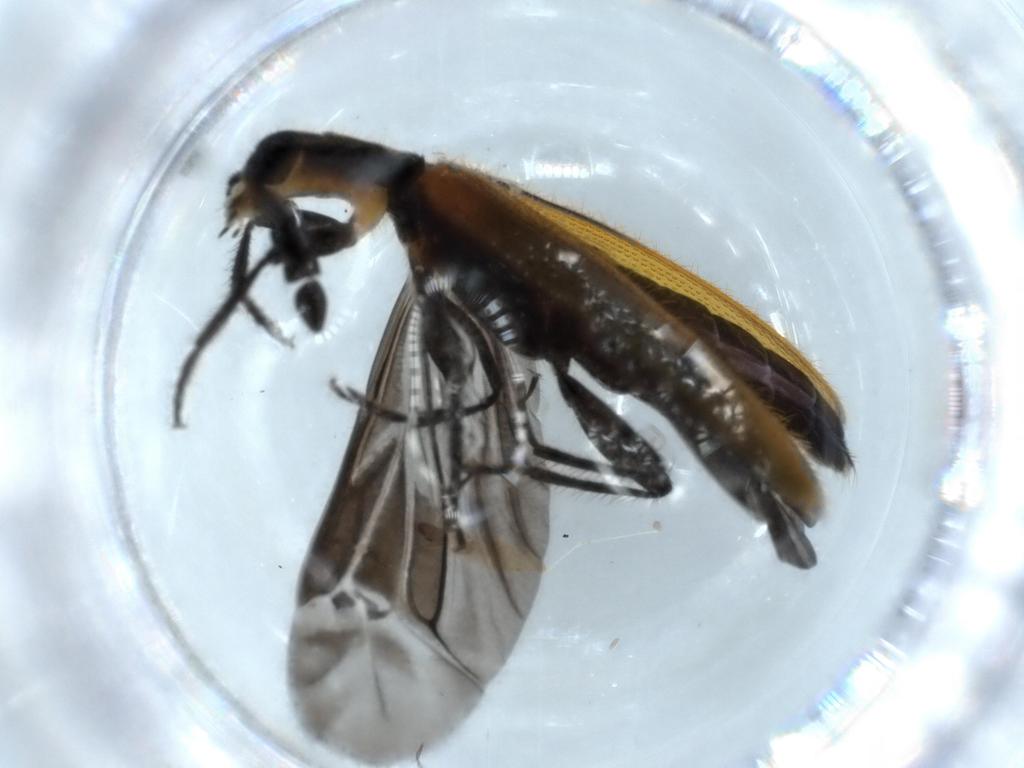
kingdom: Animalia
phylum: Arthropoda
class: Insecta
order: Coleoptera
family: Cleridae
